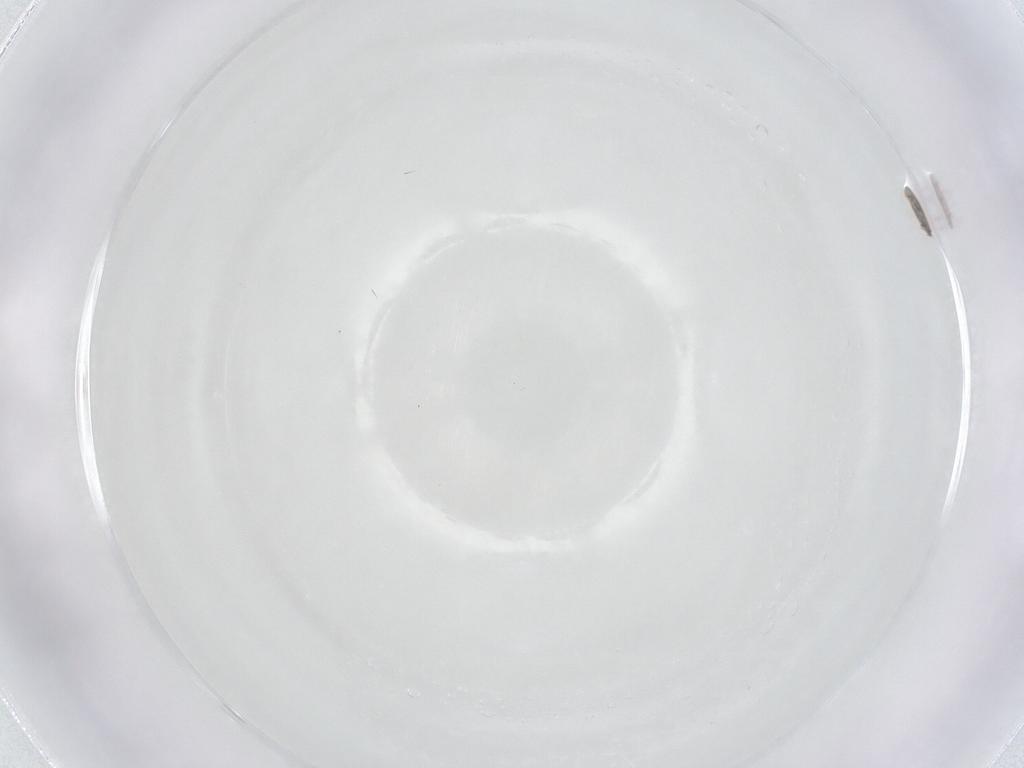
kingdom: Animalia
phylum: Arthropoda
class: Arachnida
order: Mesostigmata
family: Trematuridae
